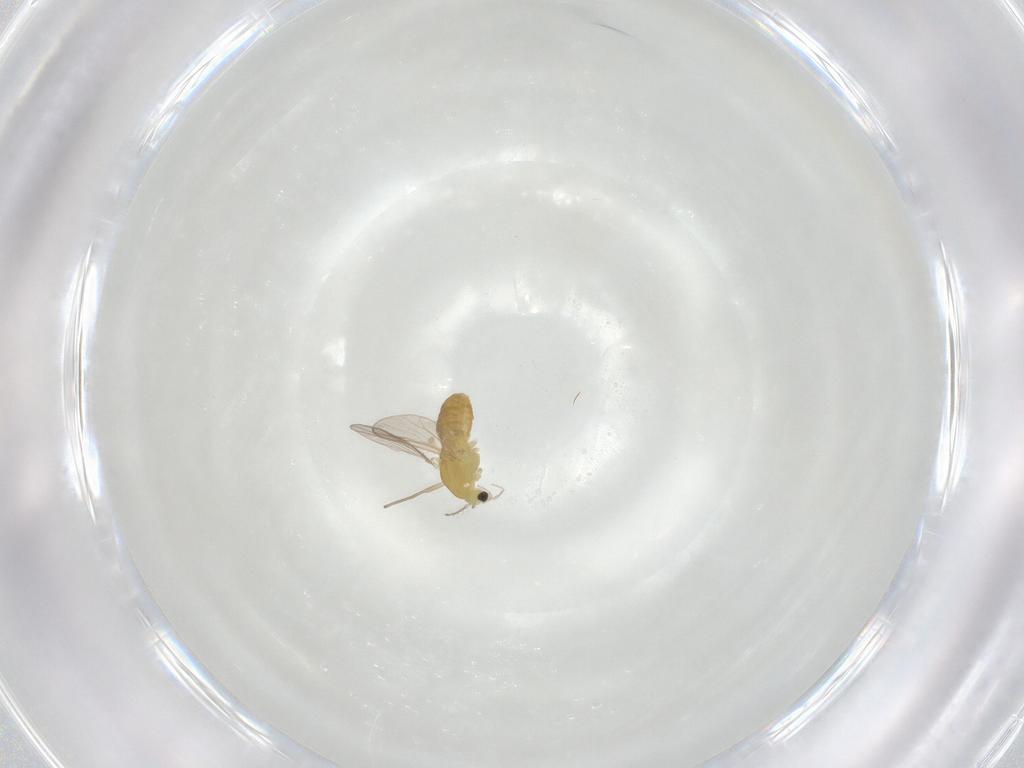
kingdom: Animalia
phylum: Arthropoda
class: Insecta
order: Diptera
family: Chironomidae
